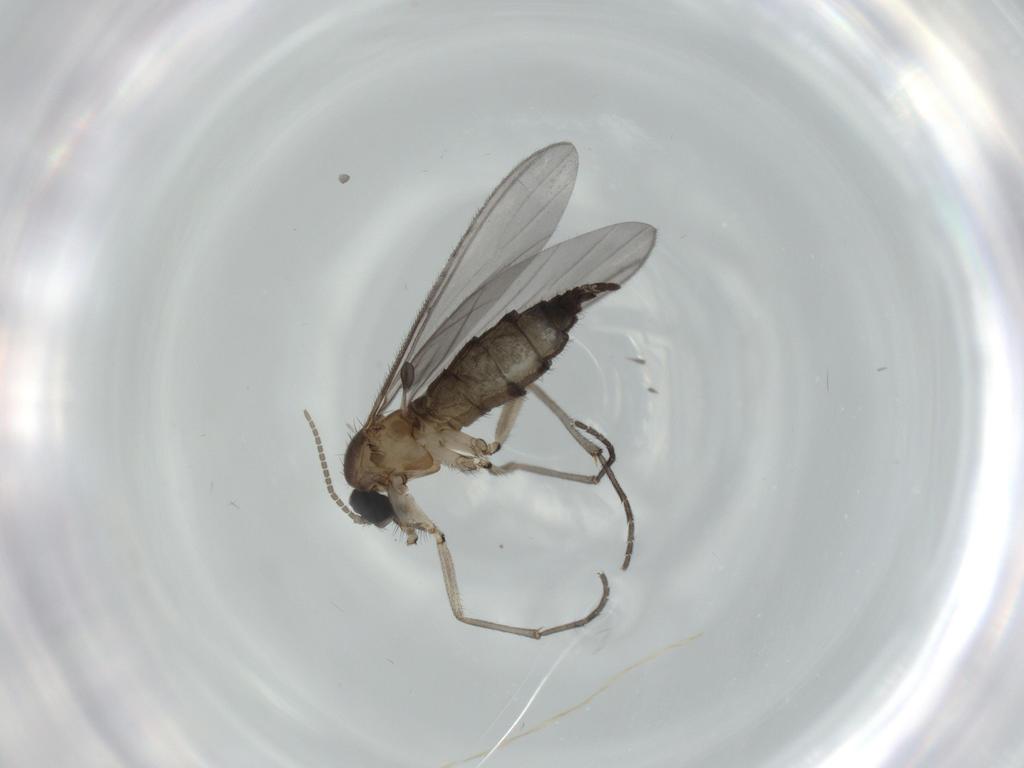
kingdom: Animalia
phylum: Arthropoda
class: Insecta
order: Diptera
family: Sciaridae
